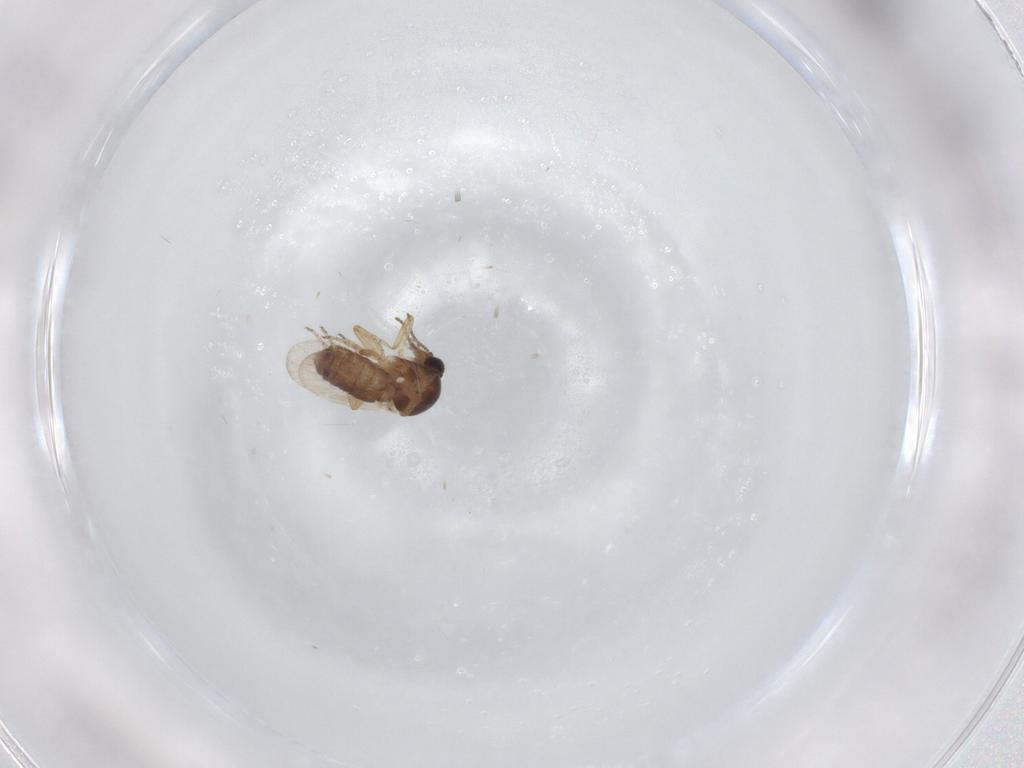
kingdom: Animalia
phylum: Arthropoda
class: Insecta
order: Diptera
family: Ceratopogonidae
